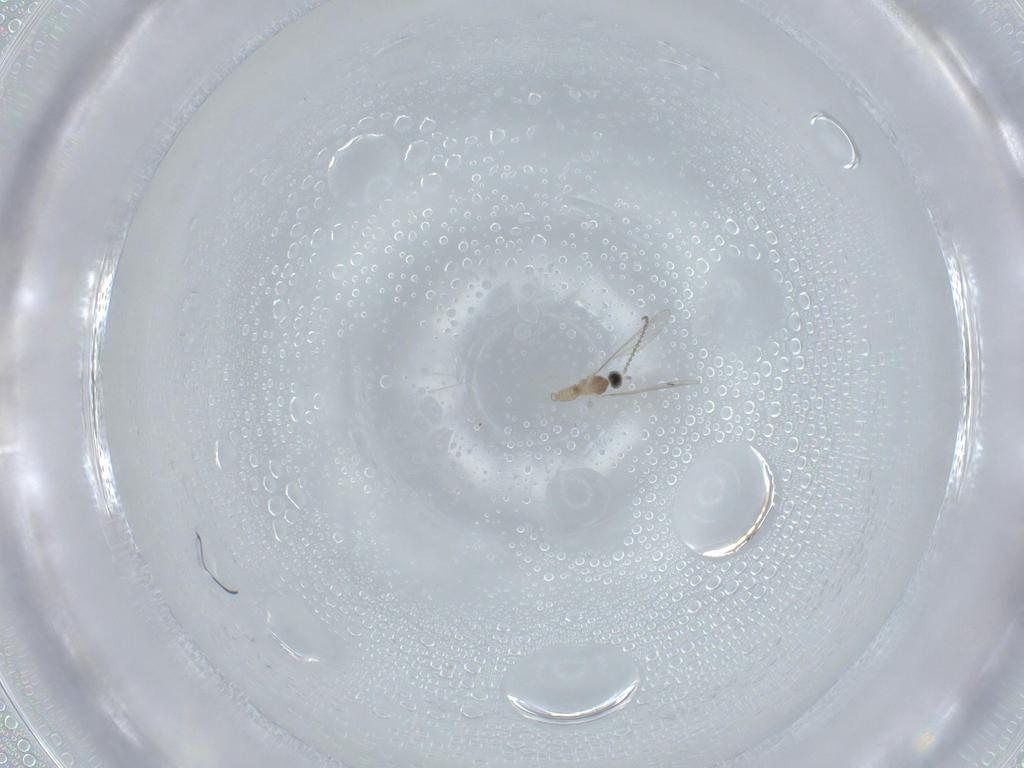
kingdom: Animalia
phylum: Arthropoda
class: Insecta
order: Diptera
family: Cecidomyiidae
